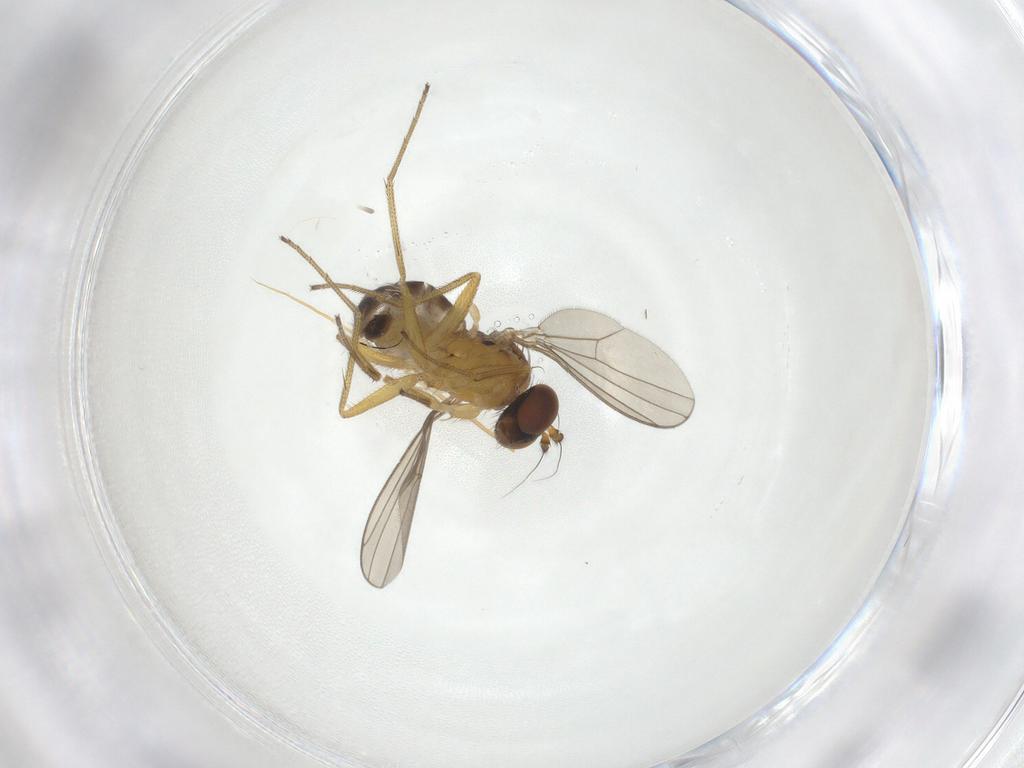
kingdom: Animalia
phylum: Arthropoda
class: Insecta
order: Diptera
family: Dolichopodidae
